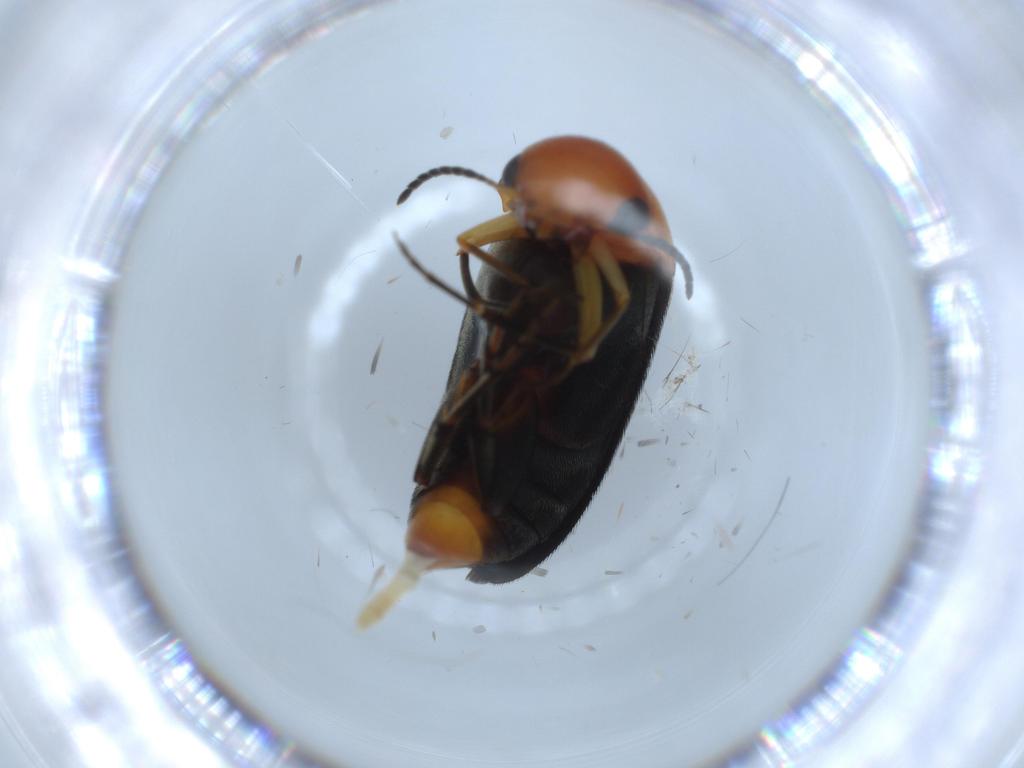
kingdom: Animalia
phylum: Arthropoda
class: Insecta
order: Coleoptera
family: Mordellidae
